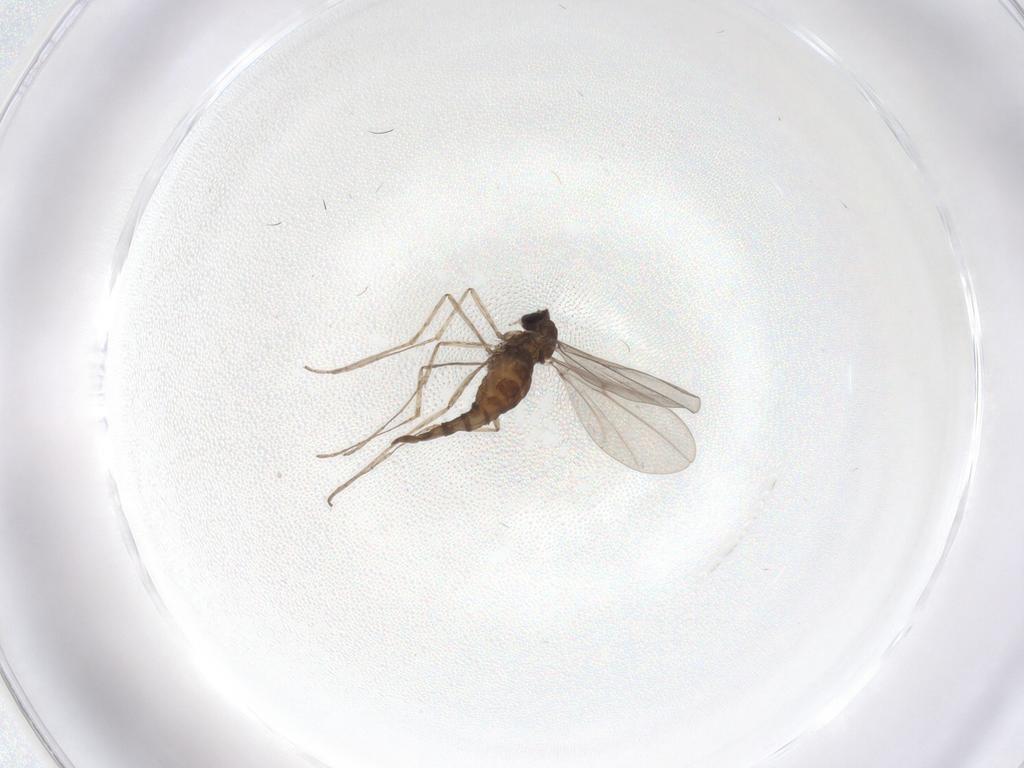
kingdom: Animalia
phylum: Arthropoda
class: Insecta
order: Diptera
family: Cecidomyiidae
